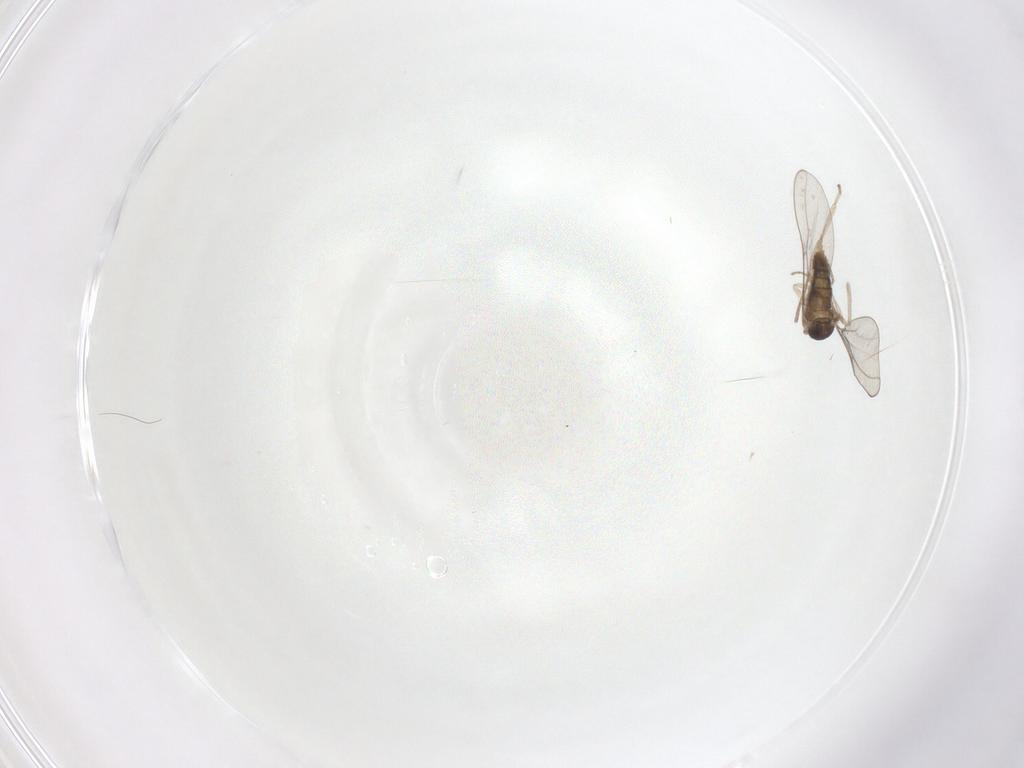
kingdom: Animalia
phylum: Arthropoda
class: Insecta
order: Diptera
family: Cecidomyiidae
